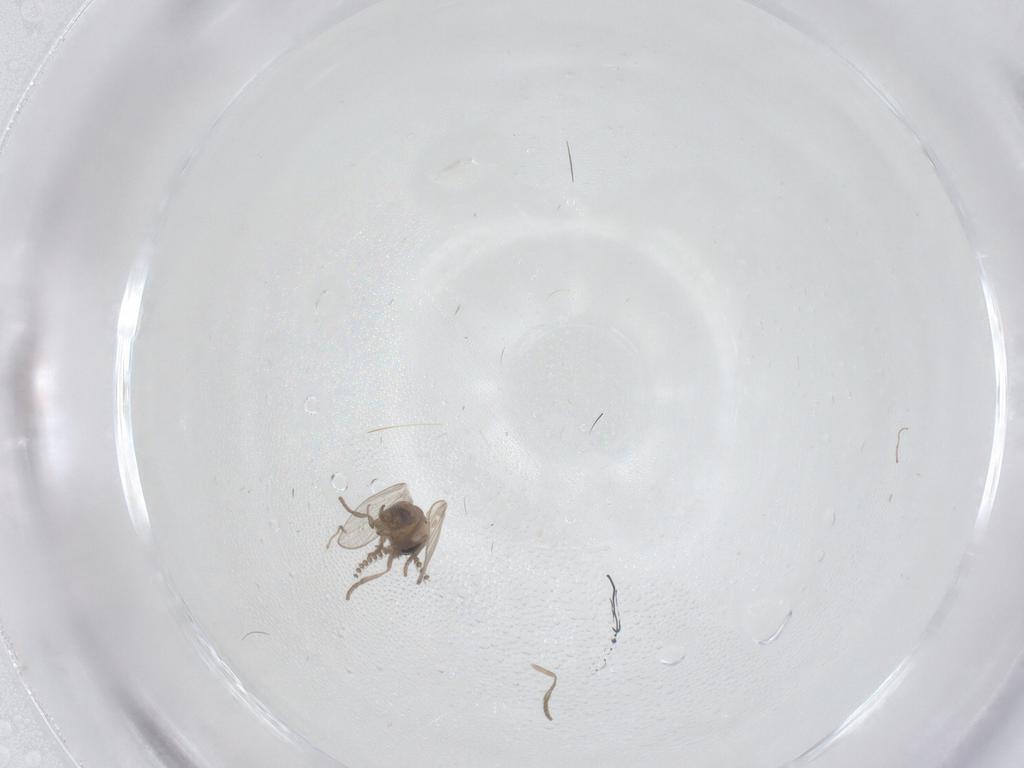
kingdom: Animalia
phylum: Arthropoda
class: Insecta
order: Diptera
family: Psychodidae
